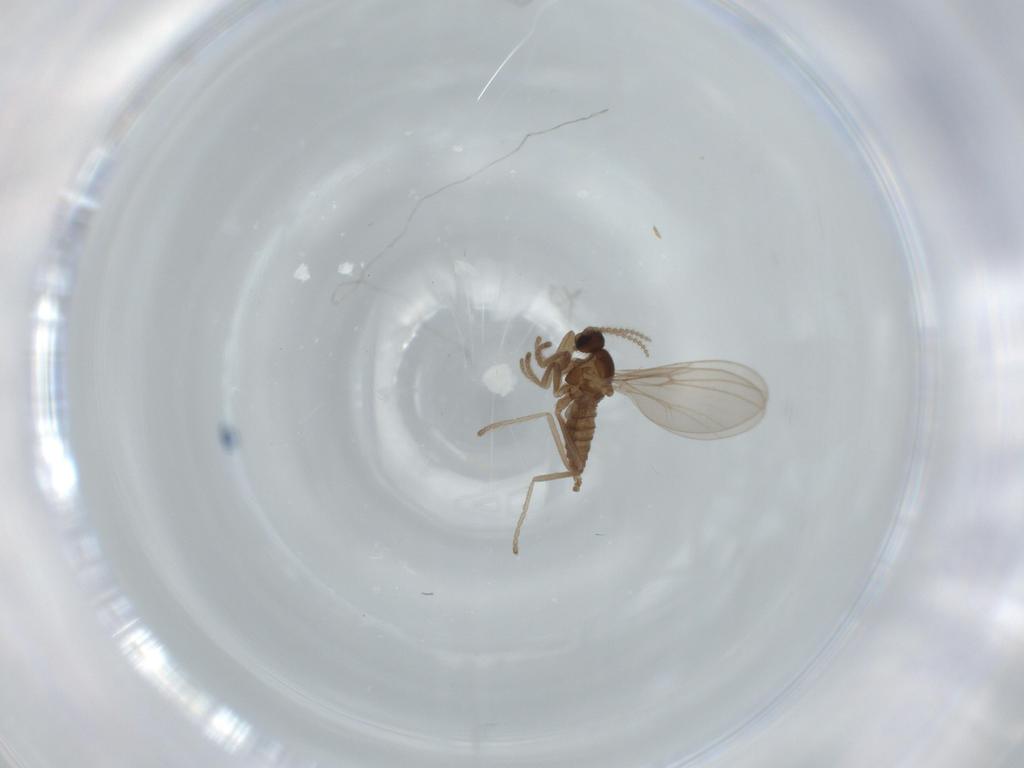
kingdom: Animalia
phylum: Arthropoda
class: Insecta
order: Diptera
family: Cecidomyiidae
